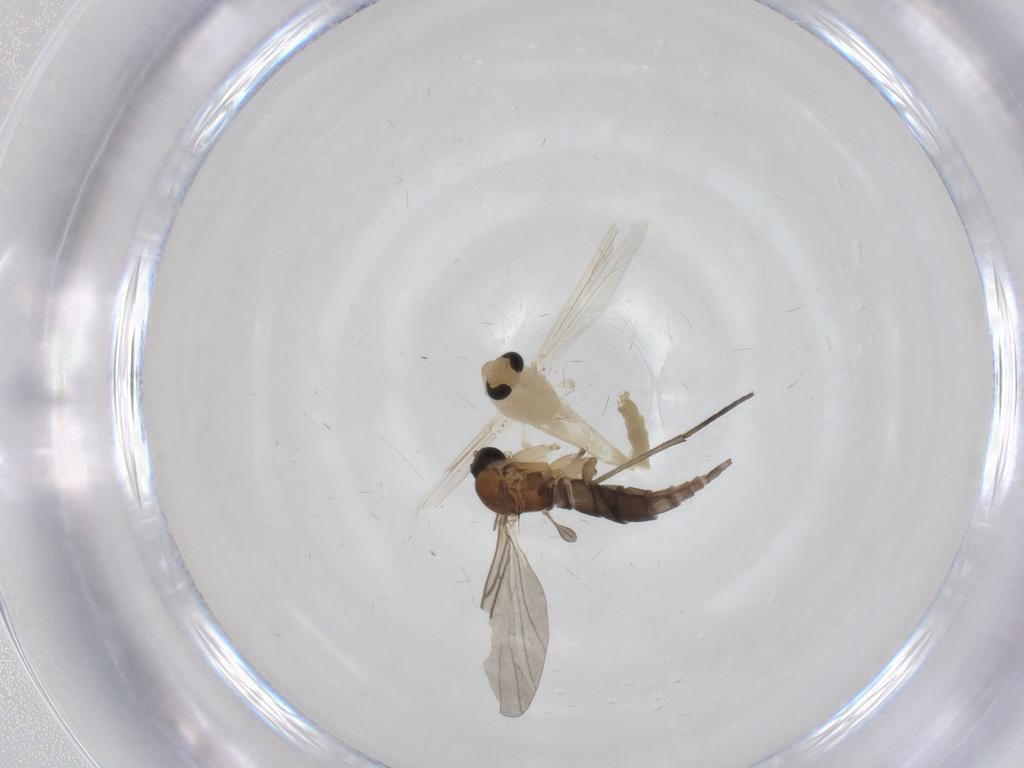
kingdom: Animalia
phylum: Arthropoda
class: Insecta
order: Diptera
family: Chironomidae
